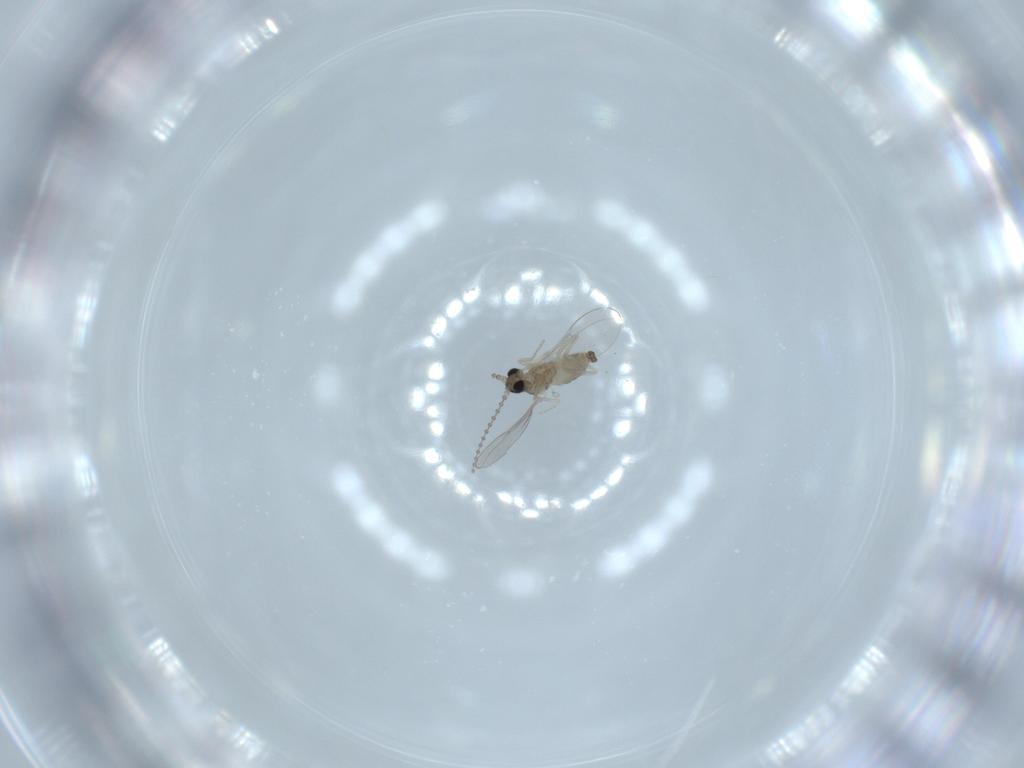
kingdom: Animalia
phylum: Arthropoda
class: Insecta
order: Diptera
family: Cecidomyiidae
